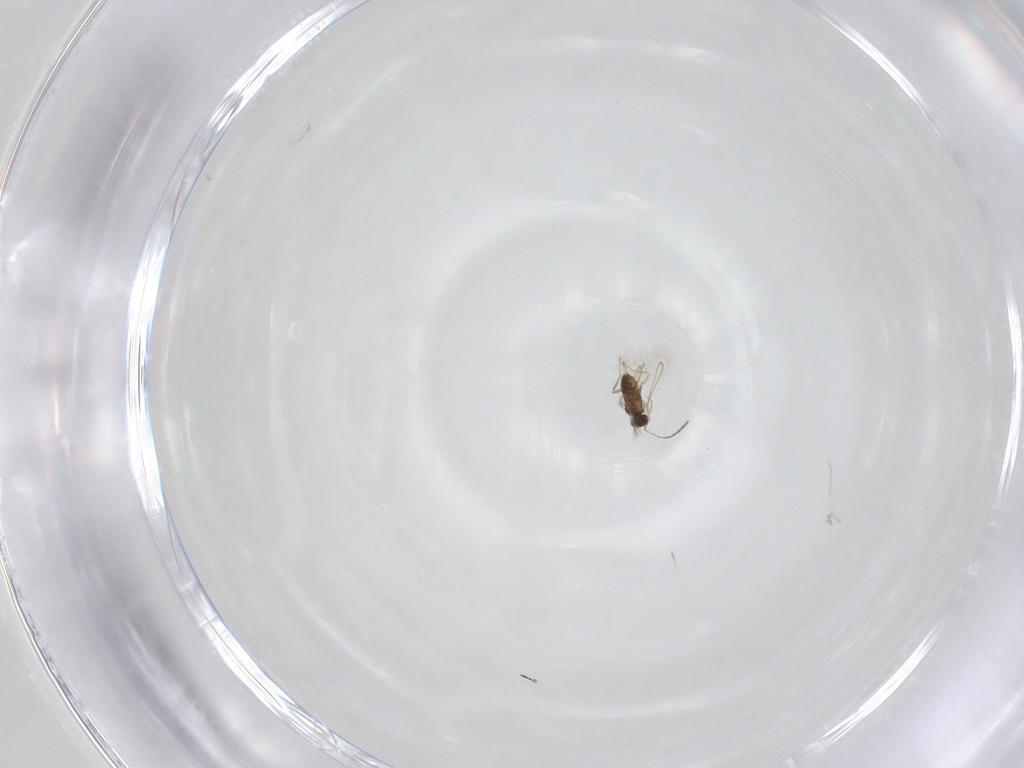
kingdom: Animalia
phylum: Arthropoda
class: Insecta
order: Hymenoptera
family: Figitidae
